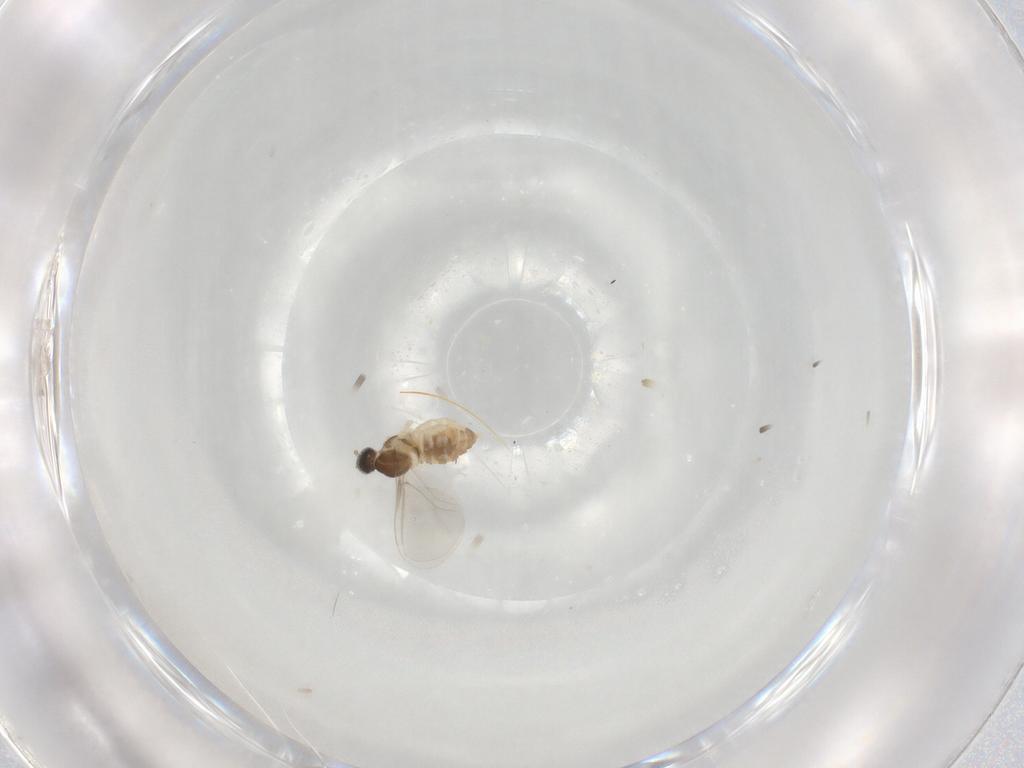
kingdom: Animalia
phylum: Arthropoda
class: Insecta
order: Diptera
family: Cecidomyiidae
